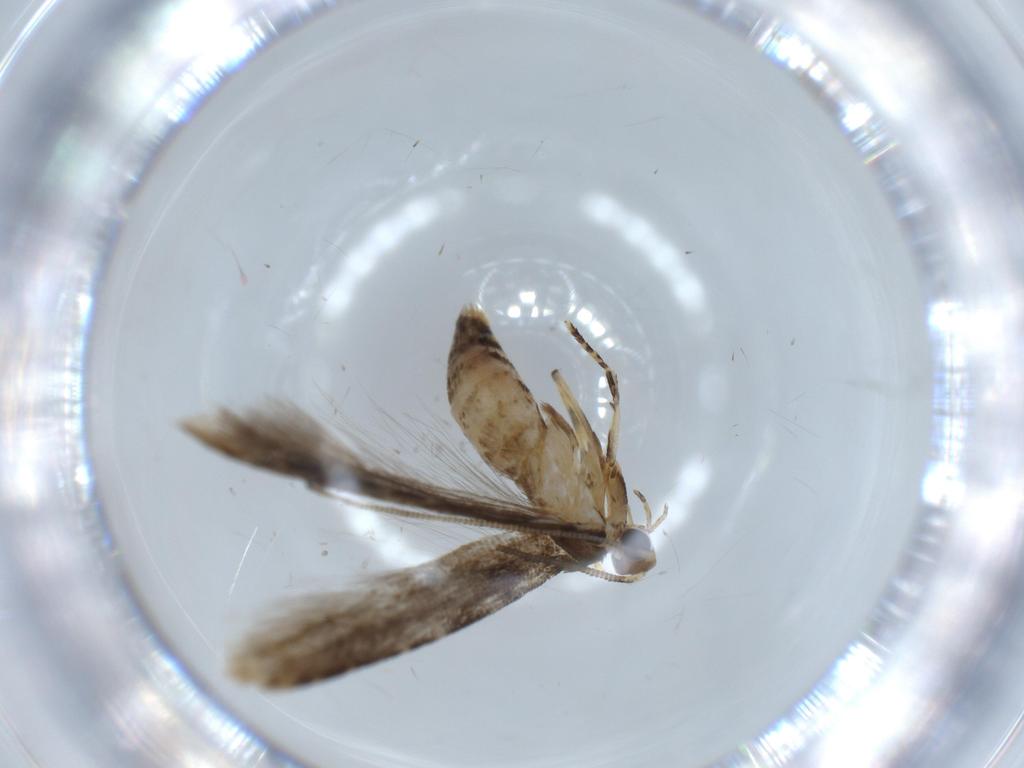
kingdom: Animalia
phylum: Arthropoda
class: Insecta
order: Lepidoptera
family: Tineidae
